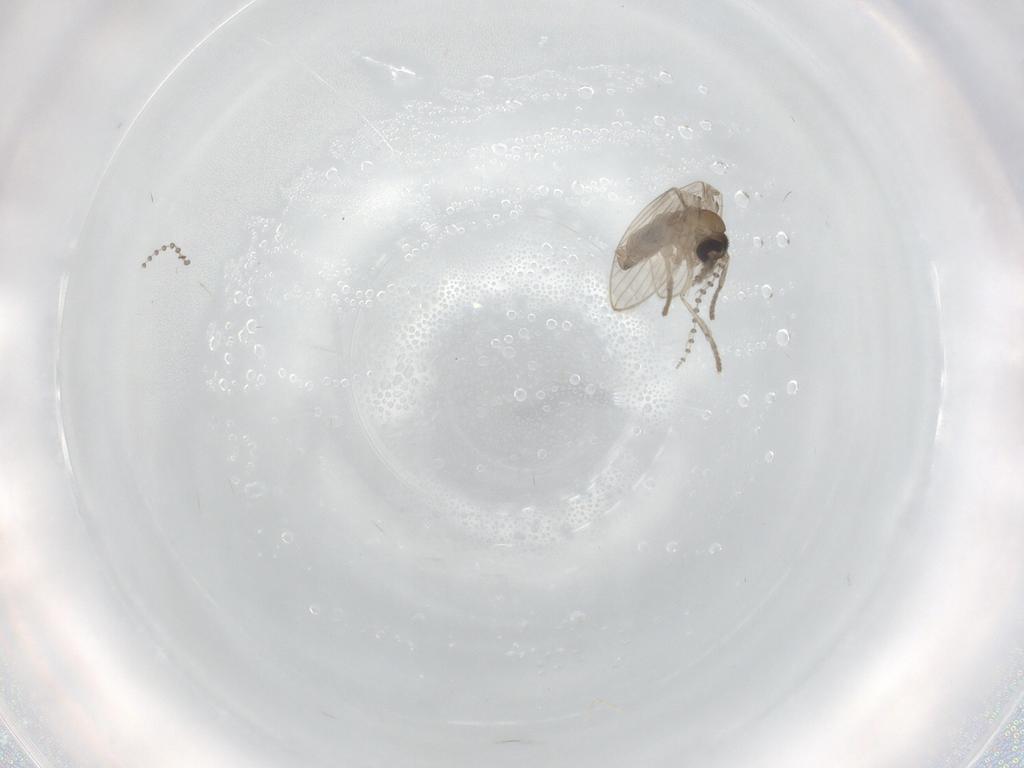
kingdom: Animalia
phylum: Arthropoda
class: Insecta
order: Diptera
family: Psychodidae
